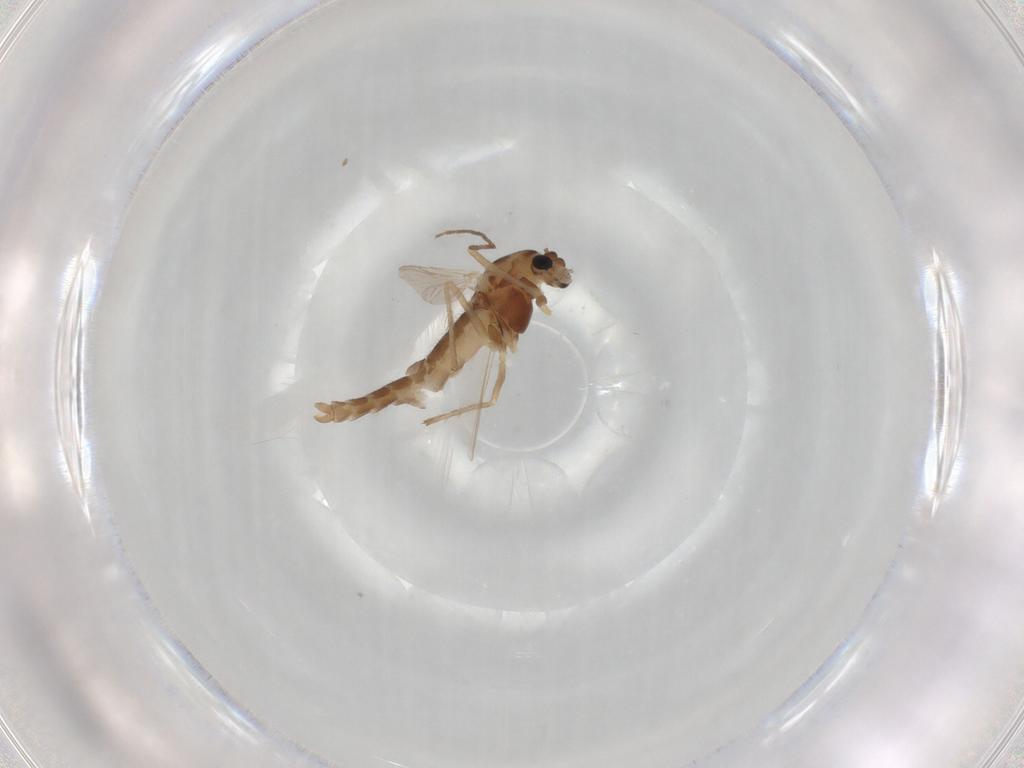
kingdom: Animalia
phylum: Arthropoda
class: Insecta
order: Diptera
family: Chironomidae
